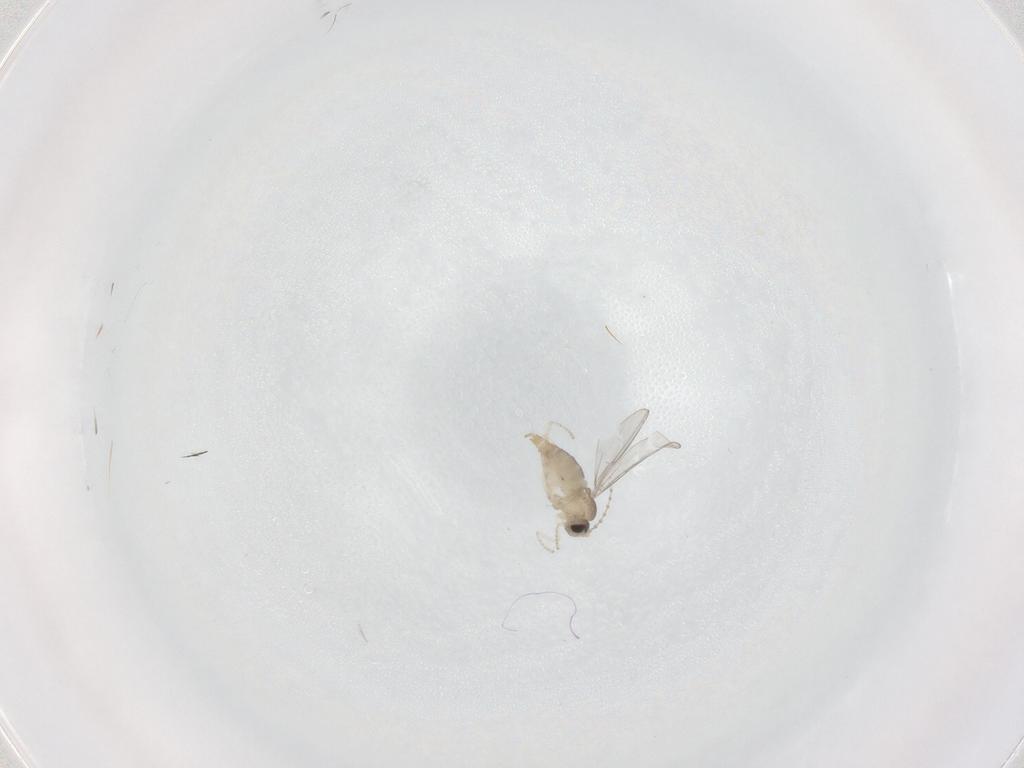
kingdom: Animalia
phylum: Arthropoda
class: Insecta
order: Diptera
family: Cecidomyiidae
